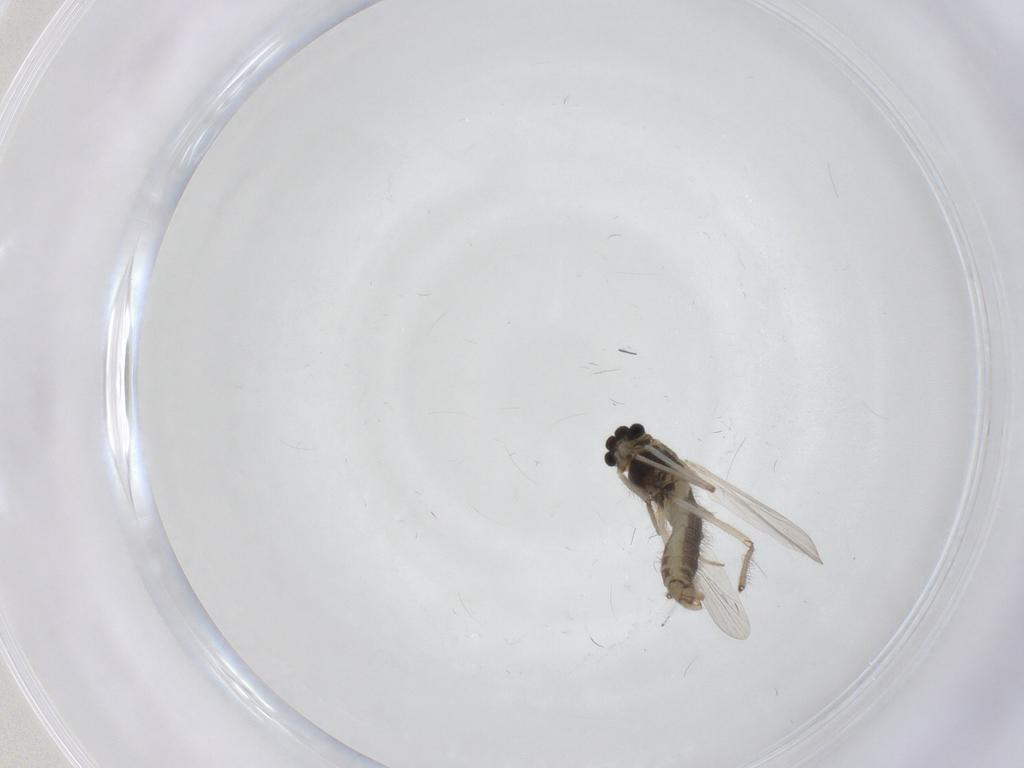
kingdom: Animalia
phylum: Arthropoda
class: Insecta
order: Diptera
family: Chironomidae
